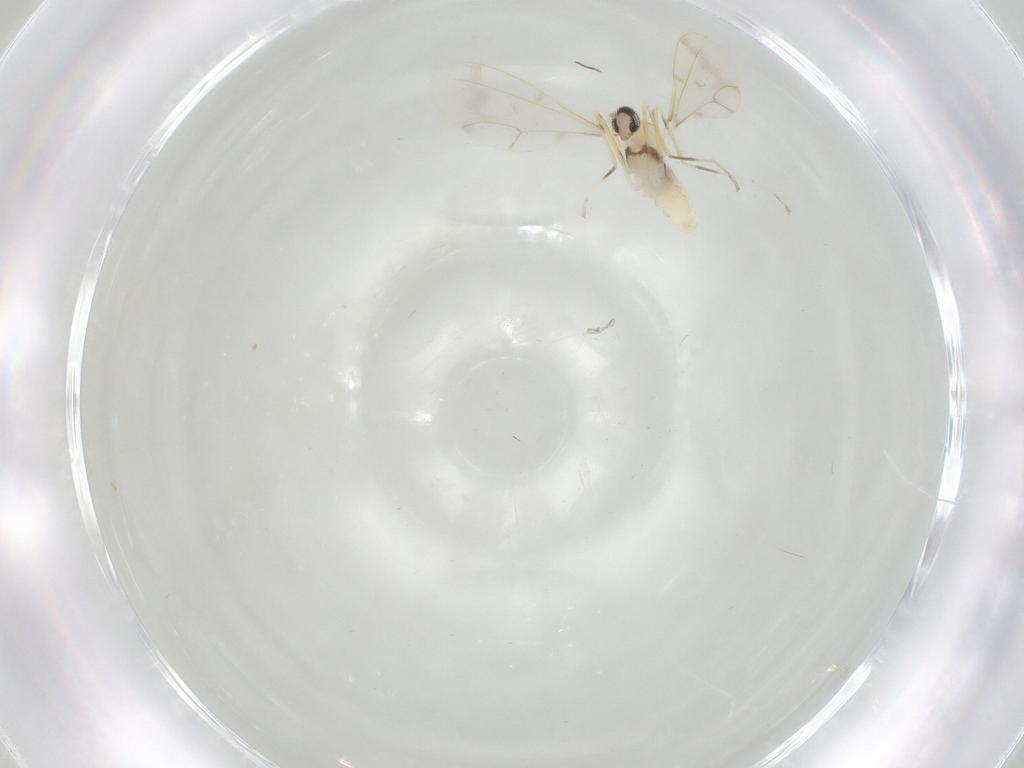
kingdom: Animalia
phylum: Arthropoda
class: Insecta
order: Diptera
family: Cecidomyiidae
